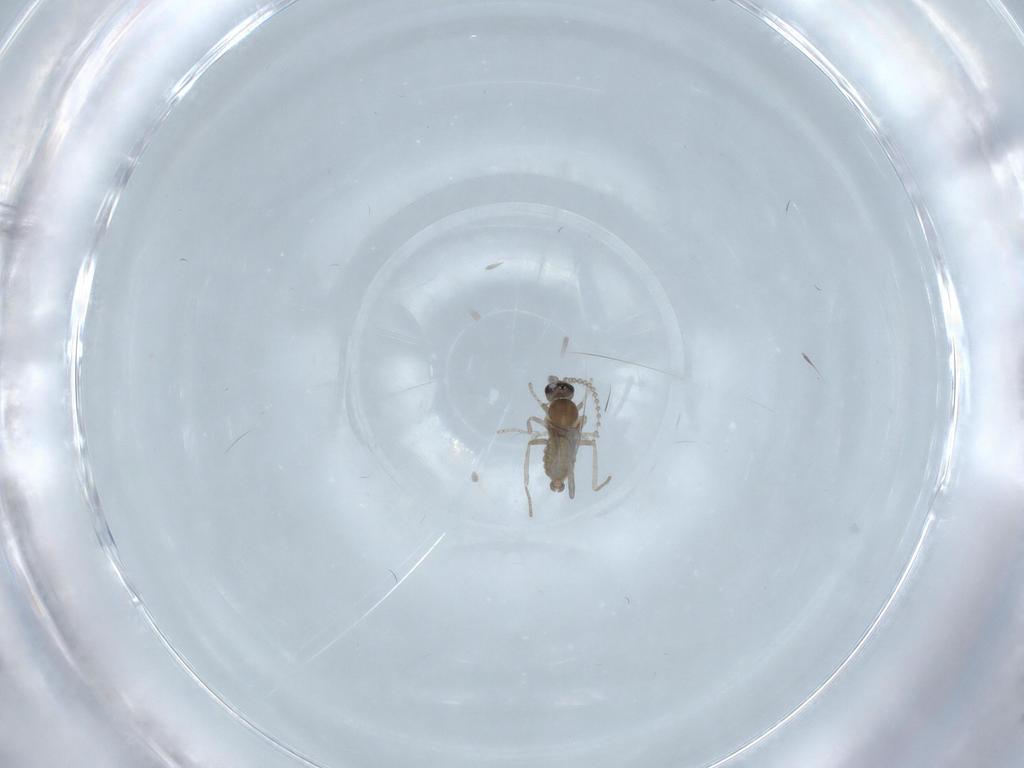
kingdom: Animalia
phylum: Arthropoda
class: Insecta
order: Diptera
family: Cecidomyiidae
